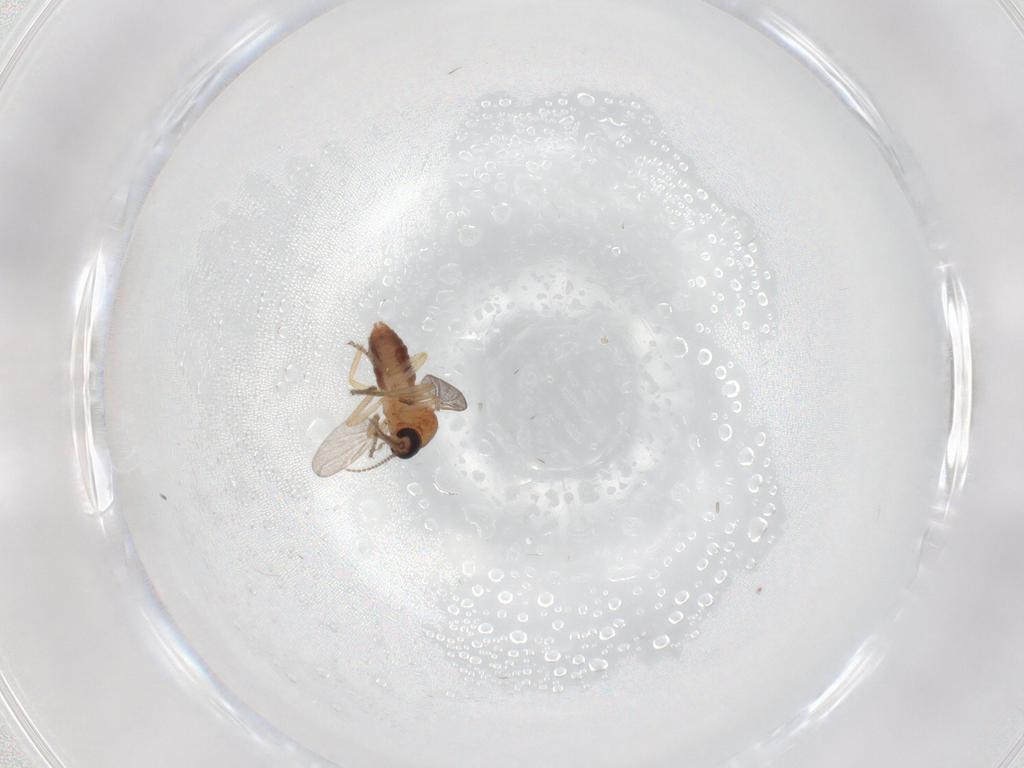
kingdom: Animalia
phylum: Arthropoda
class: Insecta
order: Diptera
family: Ceratopogonidae
